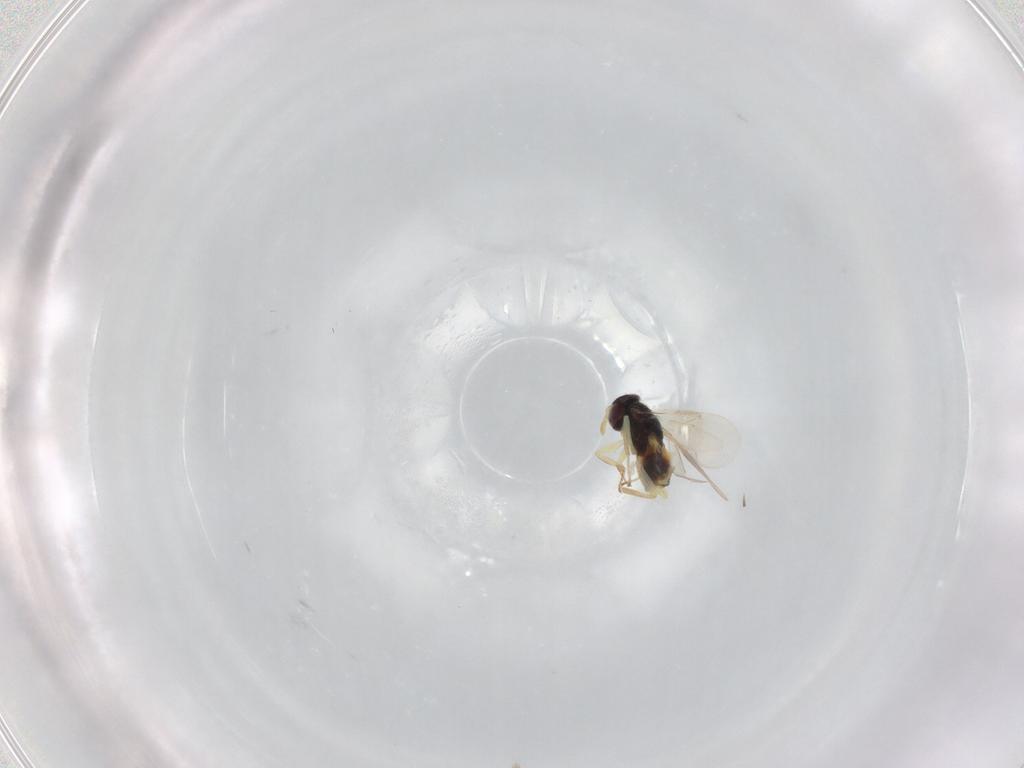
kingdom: Animalia
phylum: Arthropoda
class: Insecta
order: Hymenoptera
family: Aphelinidae
